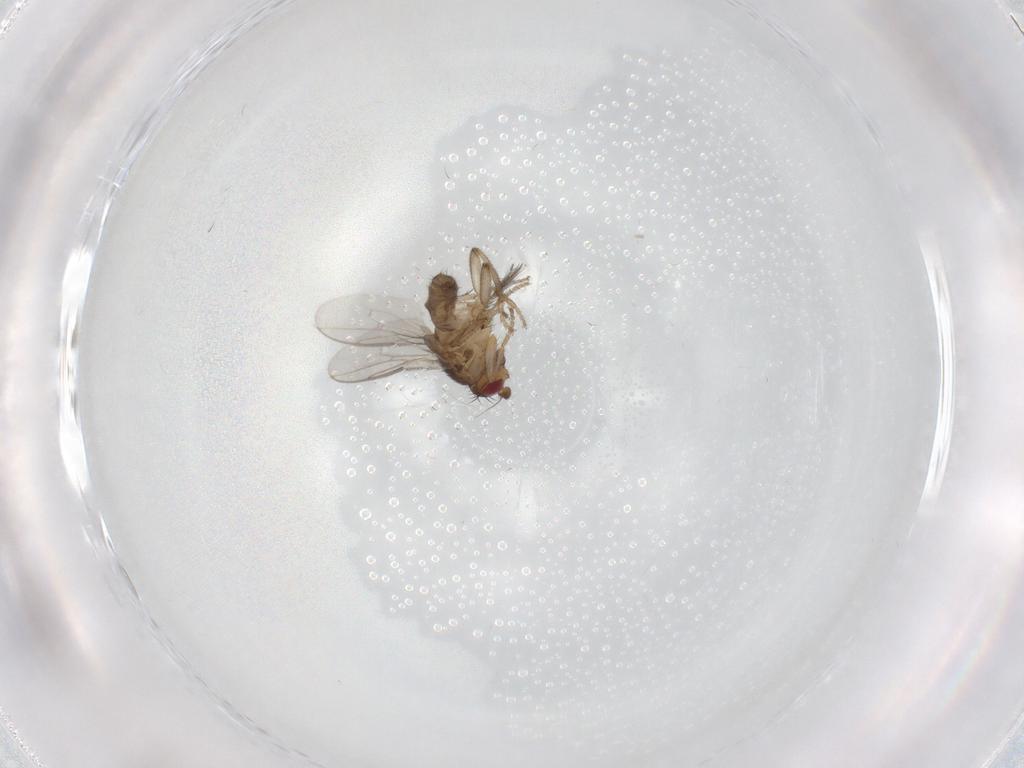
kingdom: Animalia
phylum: Arthropoda
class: Insecta
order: Diptera
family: Ceratopogonidae
